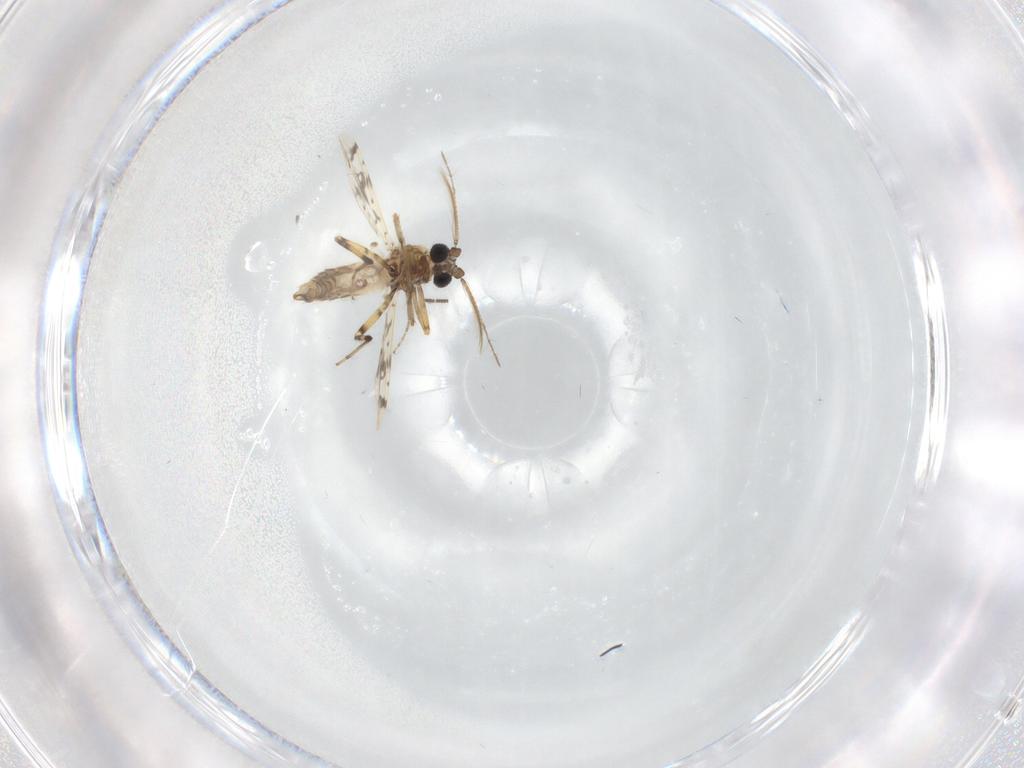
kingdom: Animalia
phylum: Arthropoda
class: Insecta
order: Diptera
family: Ceratopogonidae
